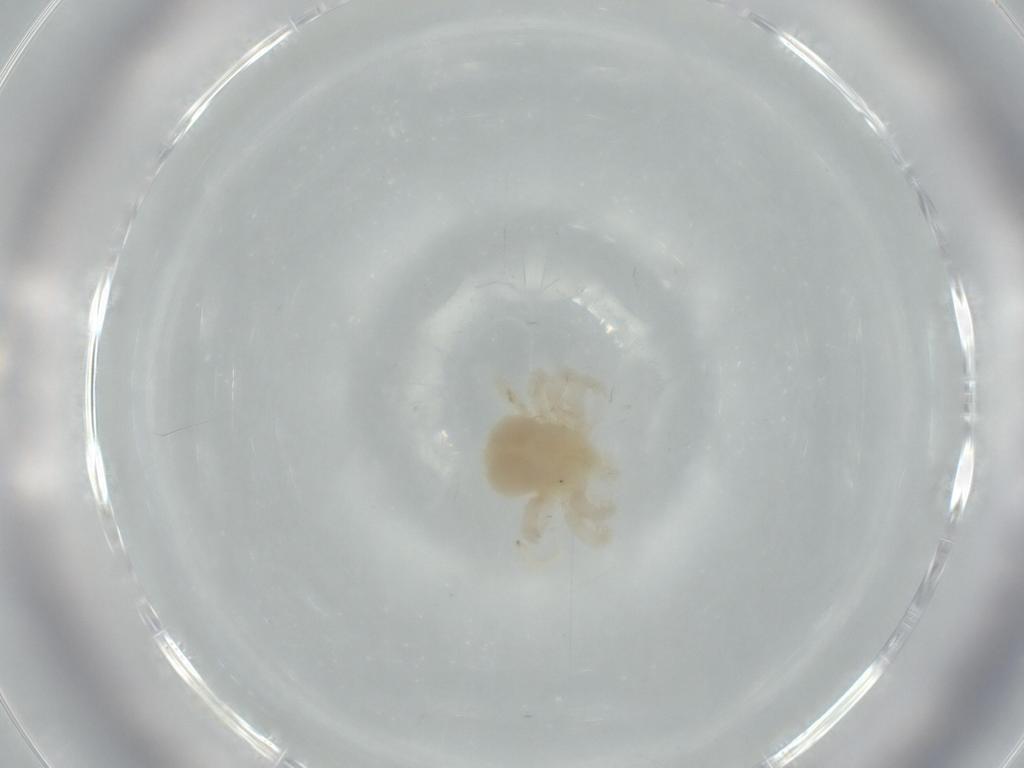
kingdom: Animalia
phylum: Arthropoda
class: Arachnida
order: Trombidiformes
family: Anystidae
